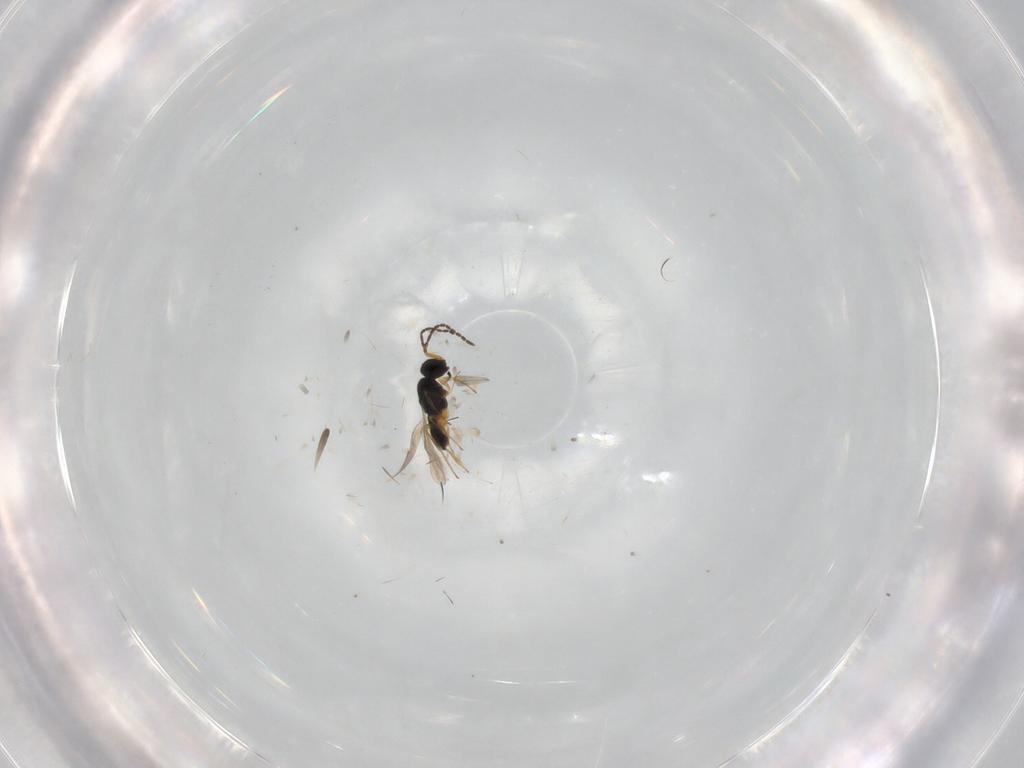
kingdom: Animalia
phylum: Arthropoda
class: Insecta
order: Hymenoptera
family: Scelionidae
